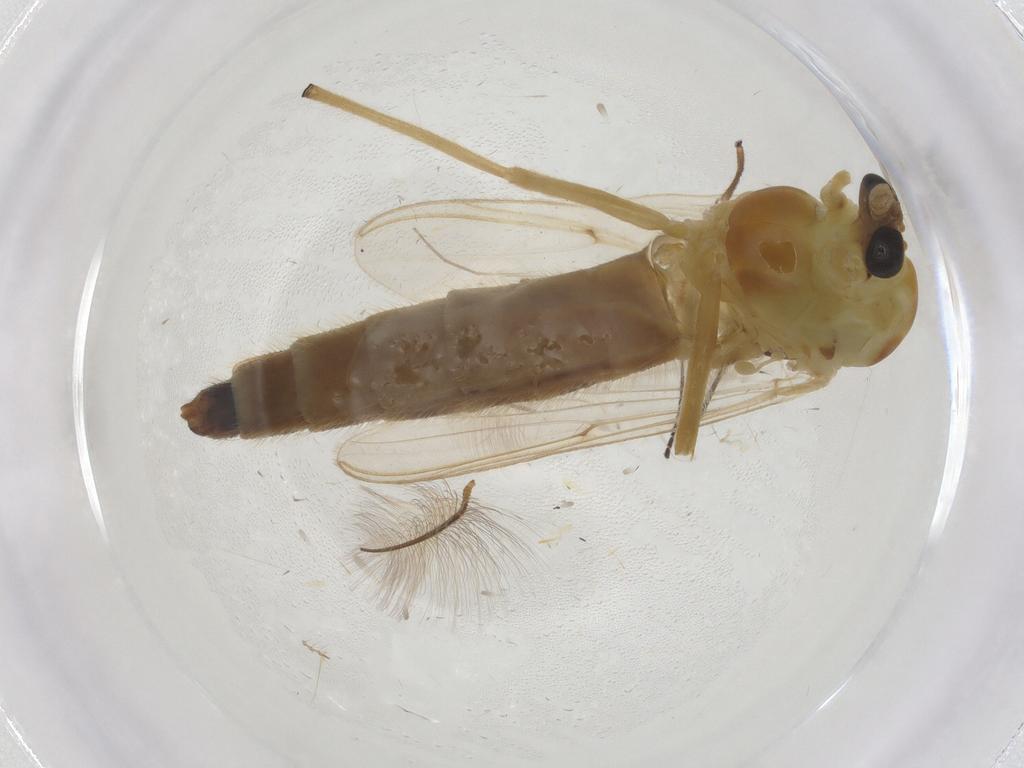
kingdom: Animalia
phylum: Arthropoda
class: Insecta
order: Diptera
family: Chironomidae
